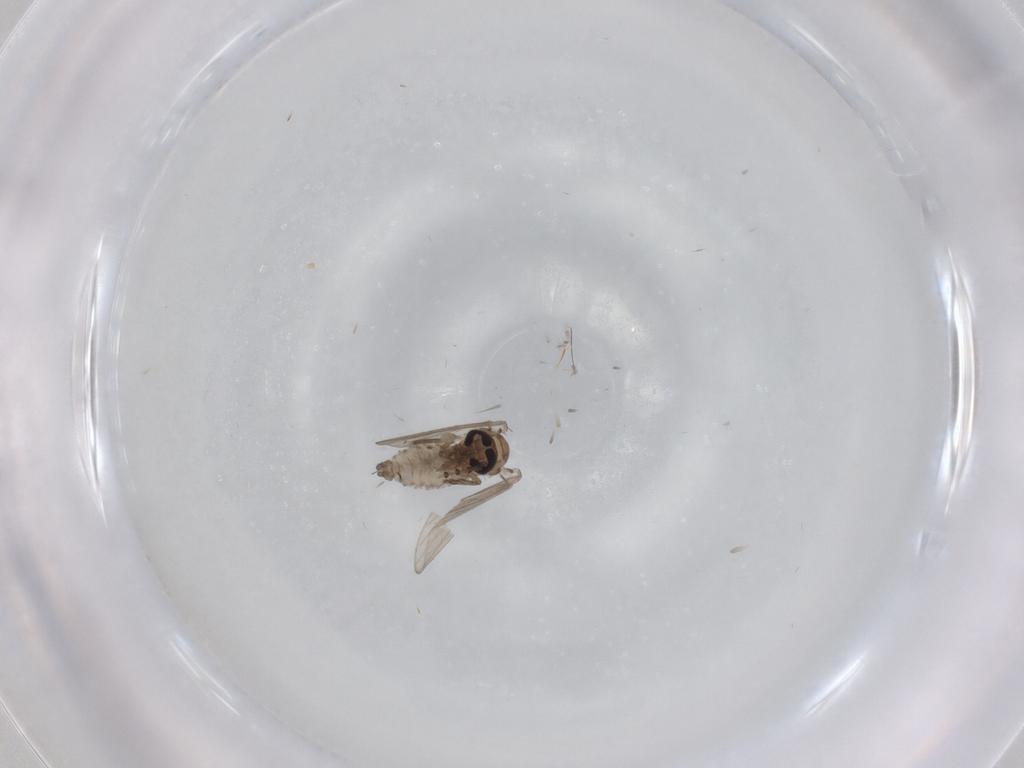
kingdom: Animalia
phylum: Arthropoda
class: Insecta
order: Diptera
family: Psychodidae
